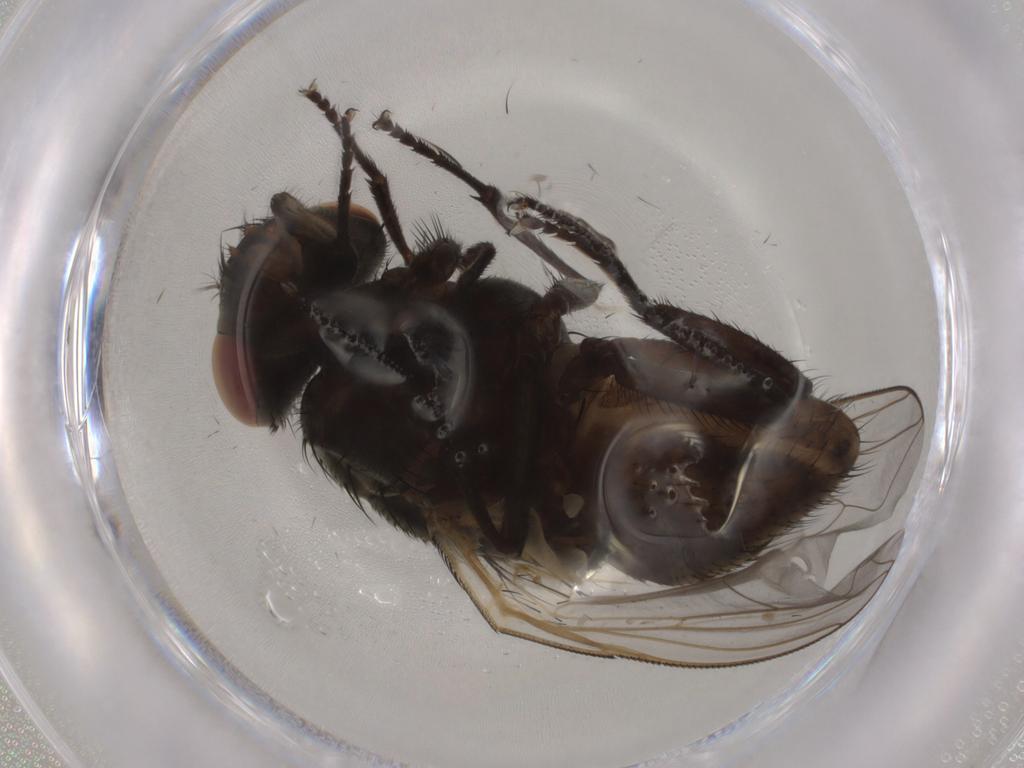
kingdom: Animalia
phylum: Arthropoda
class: Insecta
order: Diptera
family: Muscidae
